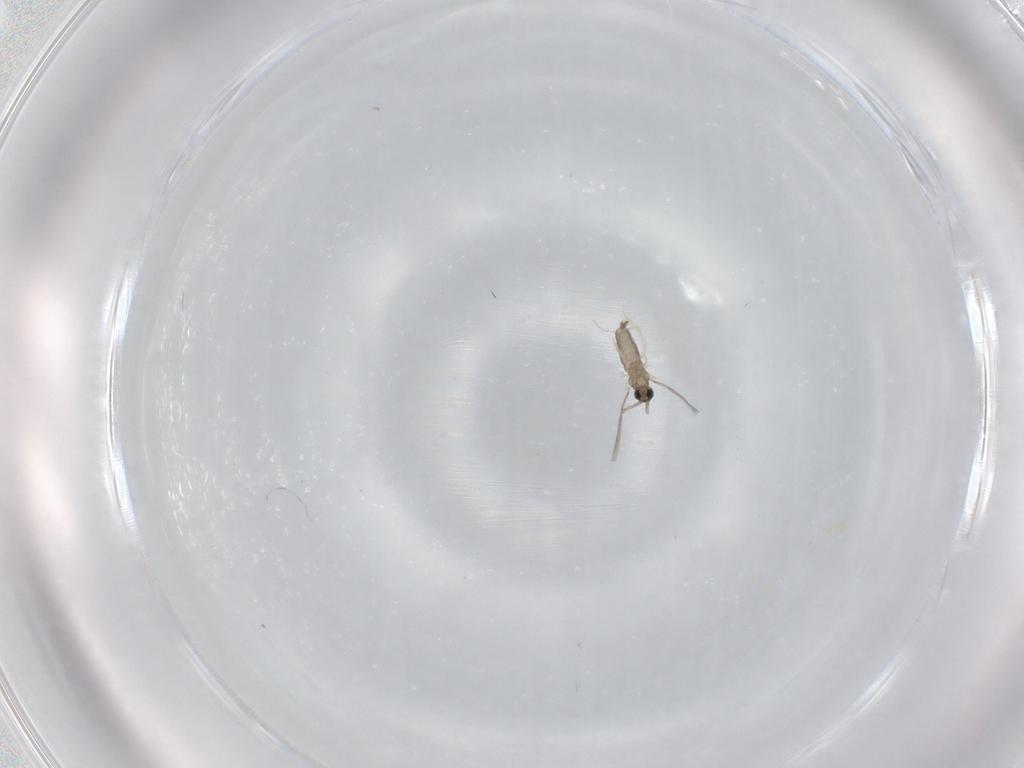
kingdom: Animalia
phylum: Arthropoda
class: Insecta
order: Diptera
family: Cecidomyiidae
